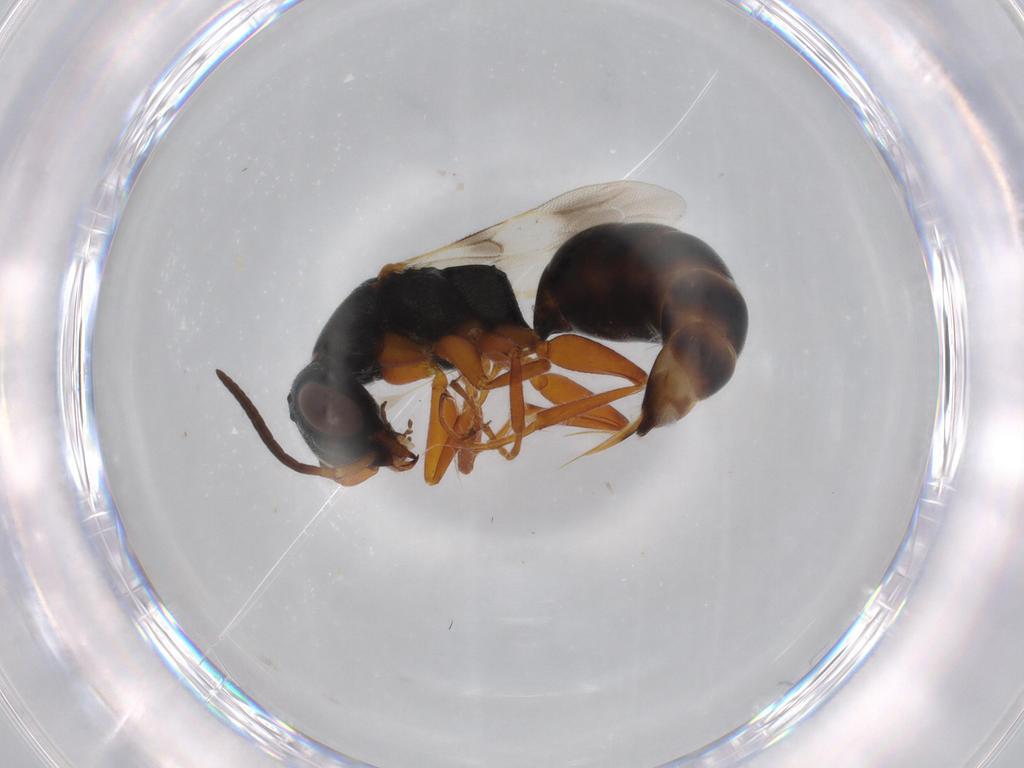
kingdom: Animalia
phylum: Arthropoda
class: Insecta
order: Hymenoptera
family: Bethylidae
